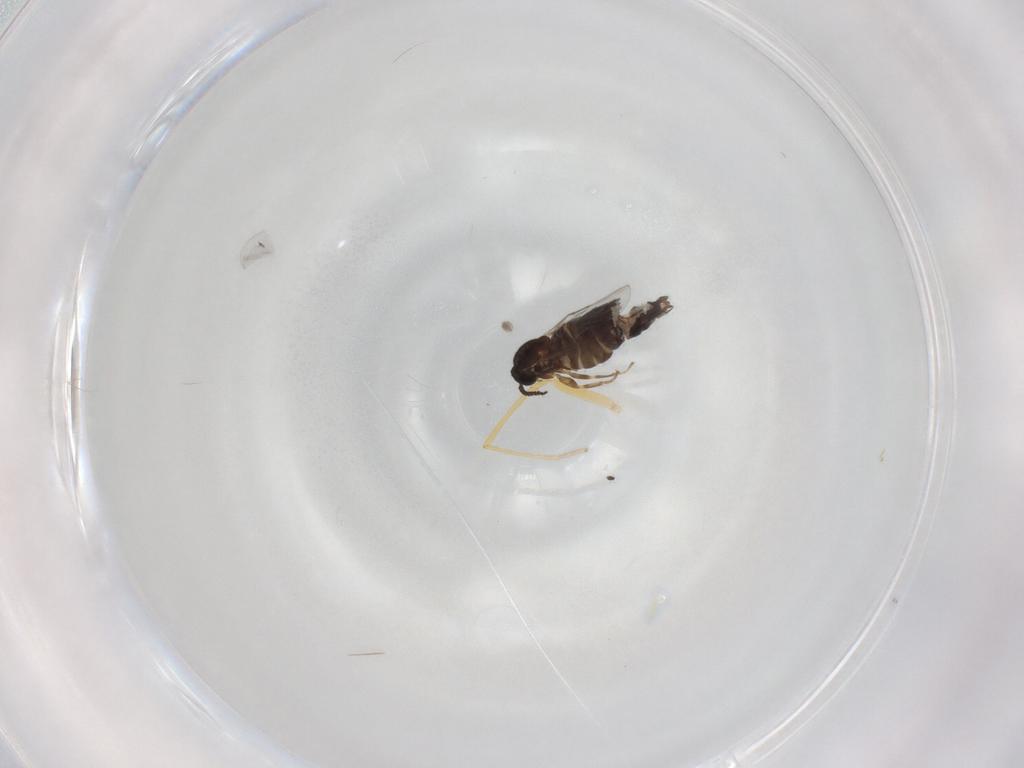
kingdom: Animalia
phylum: Arthropoda
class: Insecta
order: Diptera
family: Scatopsidae
